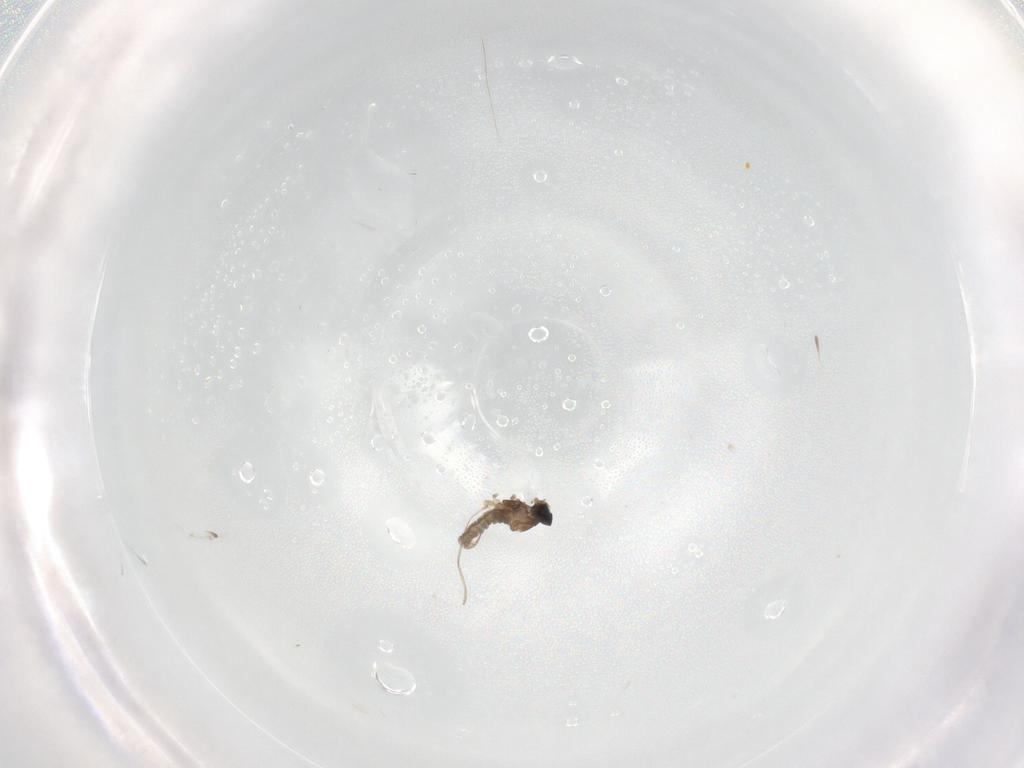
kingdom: Animalia
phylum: Arthropoda
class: Insecta
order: Diptera
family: Cecidomyiidae
